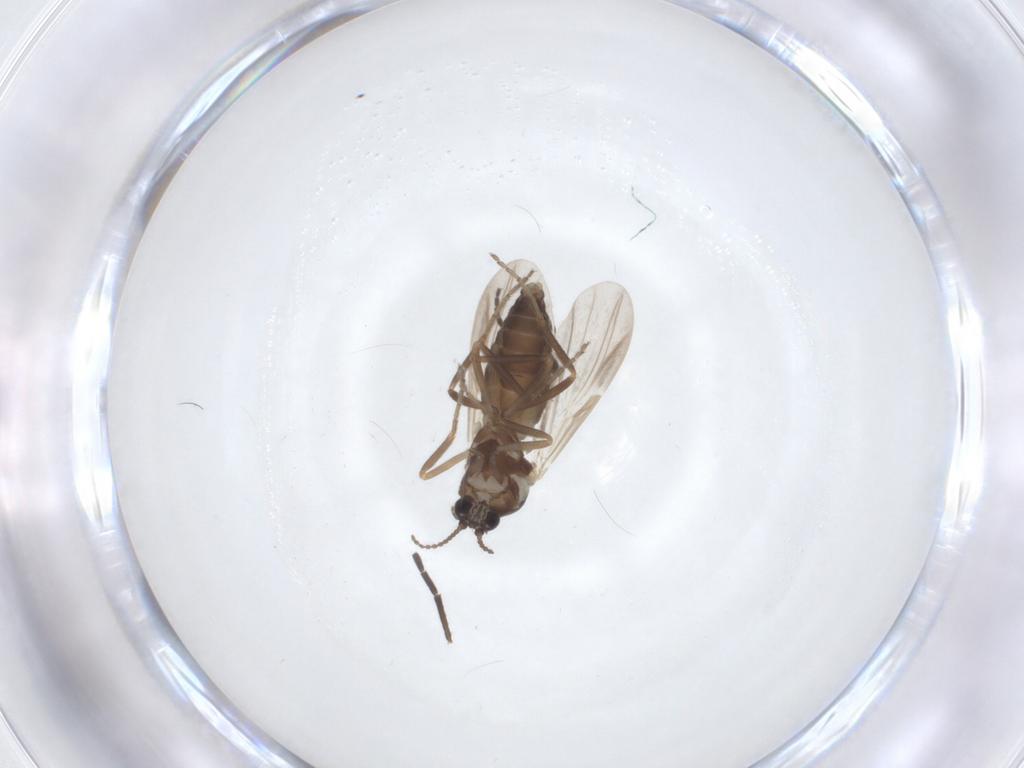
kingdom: Animalia
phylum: Arthropoda
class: Insecta
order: Diptera
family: Ceratopogonidae
